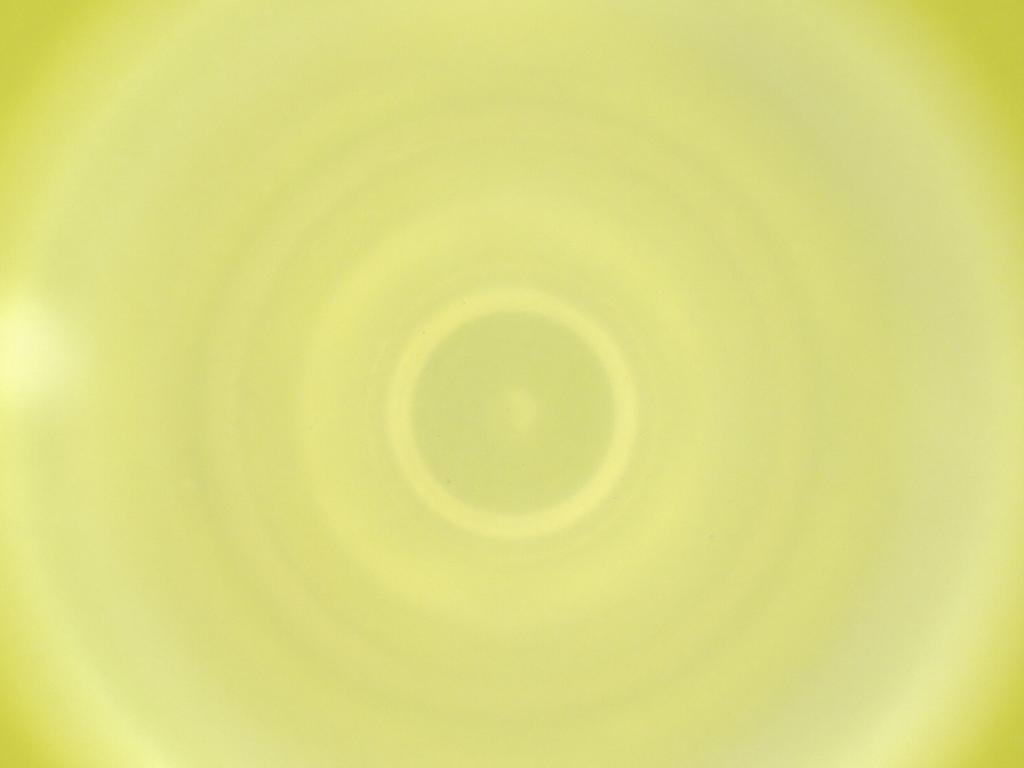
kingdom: Animalia
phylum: Arthropoda
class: Insecta
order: Diptera
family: Cecidomyiidae
